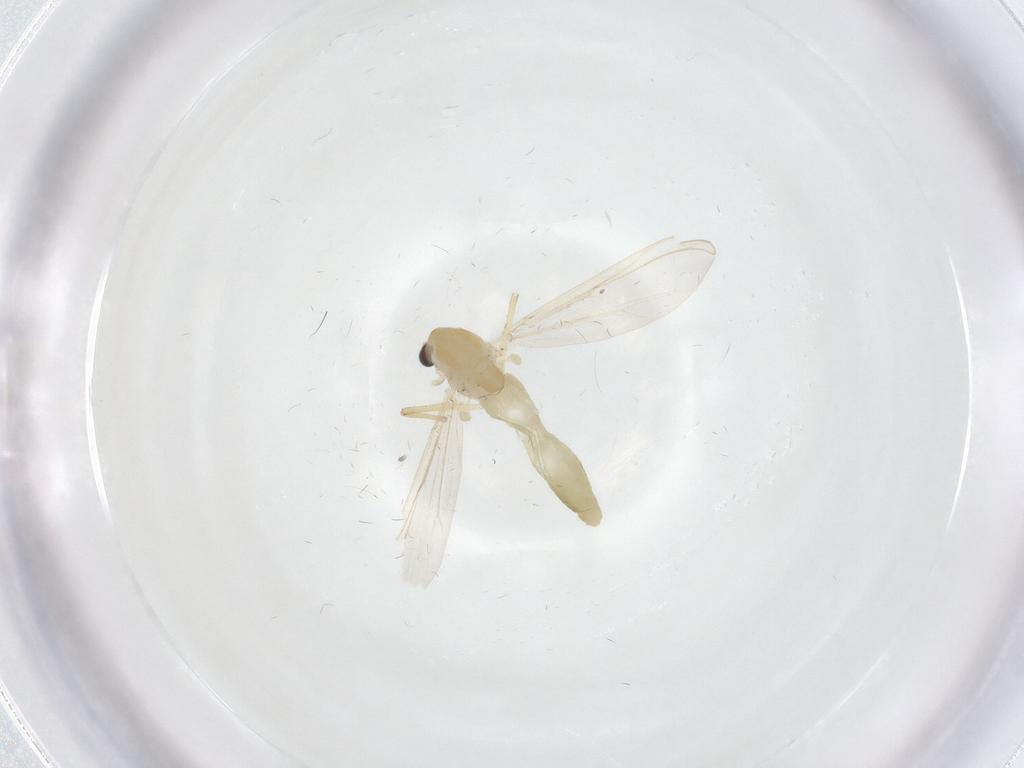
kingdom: Animalia
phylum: Arthropoda
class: Insecta
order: Diptera
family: Chironomidae
